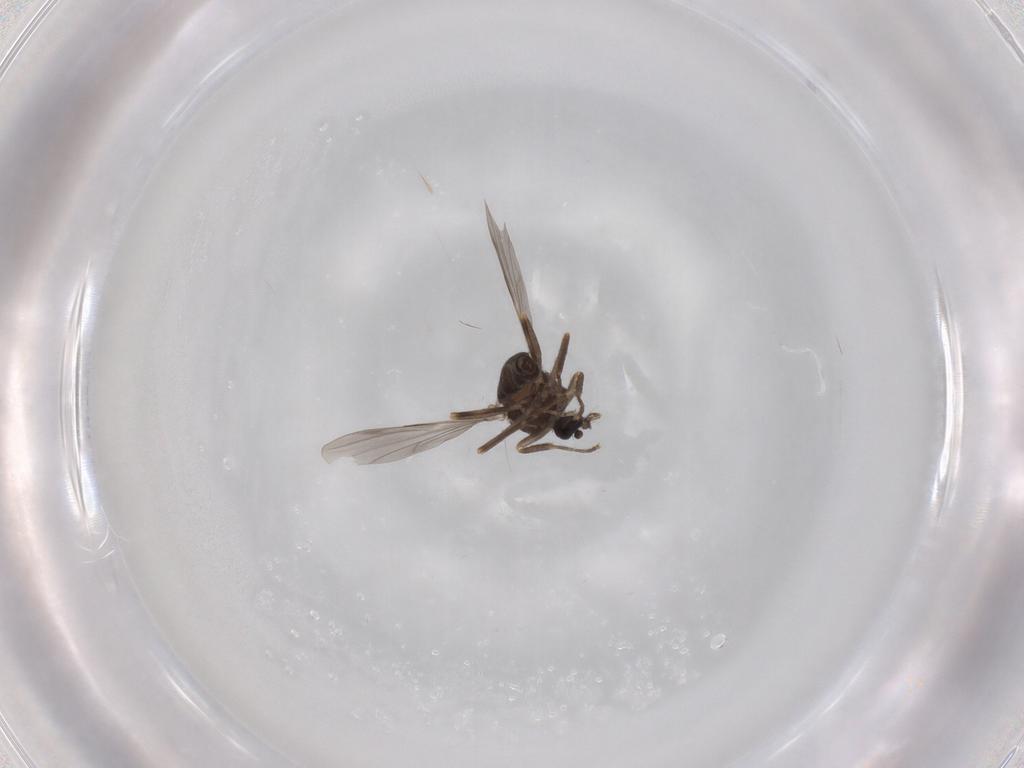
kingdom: Animalia
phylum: Arthropoda
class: Insecta
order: Diptera
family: Ceratopogonidae
